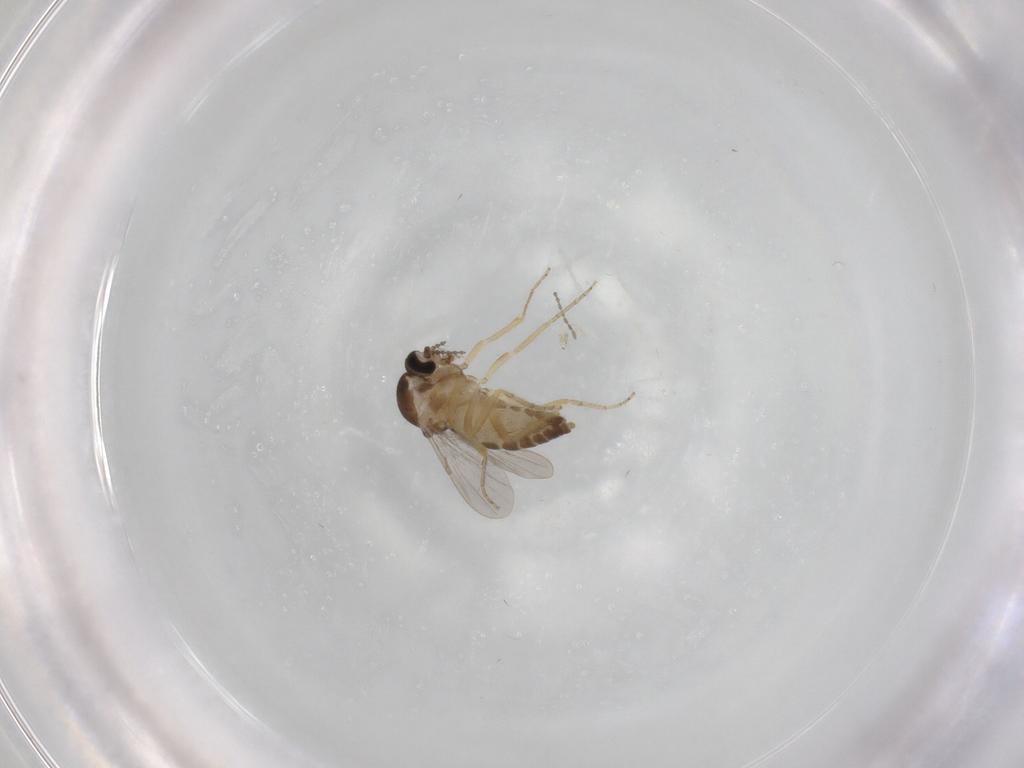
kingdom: Animalia
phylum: Arthropoda
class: Insecta
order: Diptera
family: Ceratopogonidae
